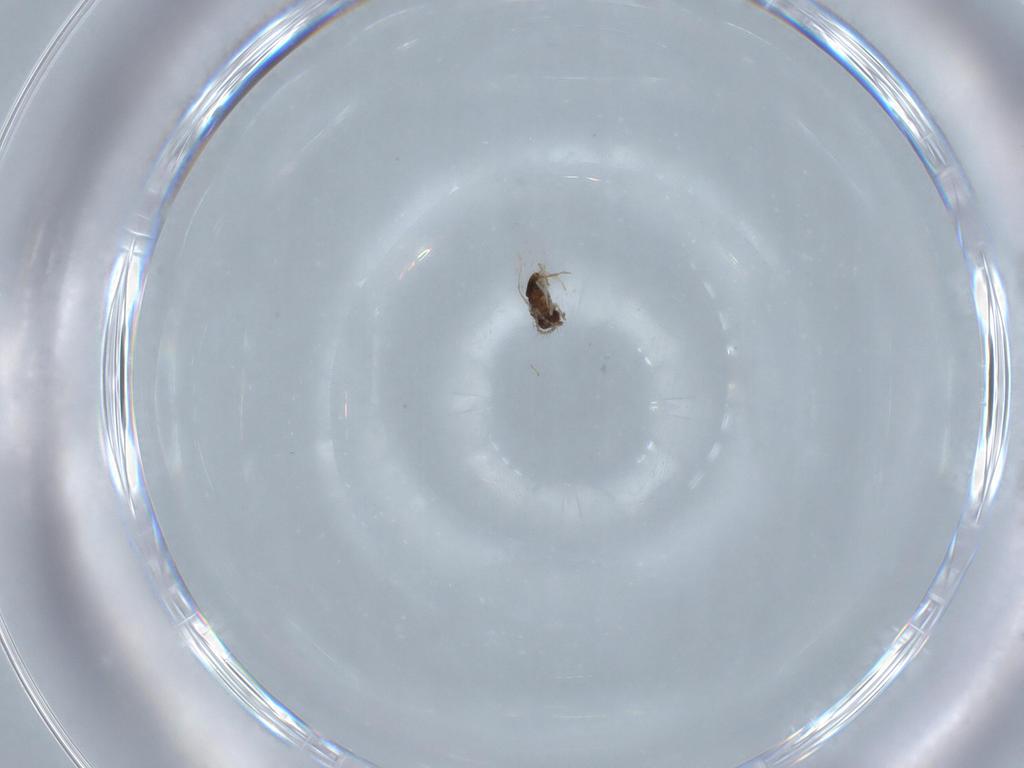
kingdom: Animalia
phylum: Arthropoda
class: Insecta
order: Hymenoptera
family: Encyrtidae
